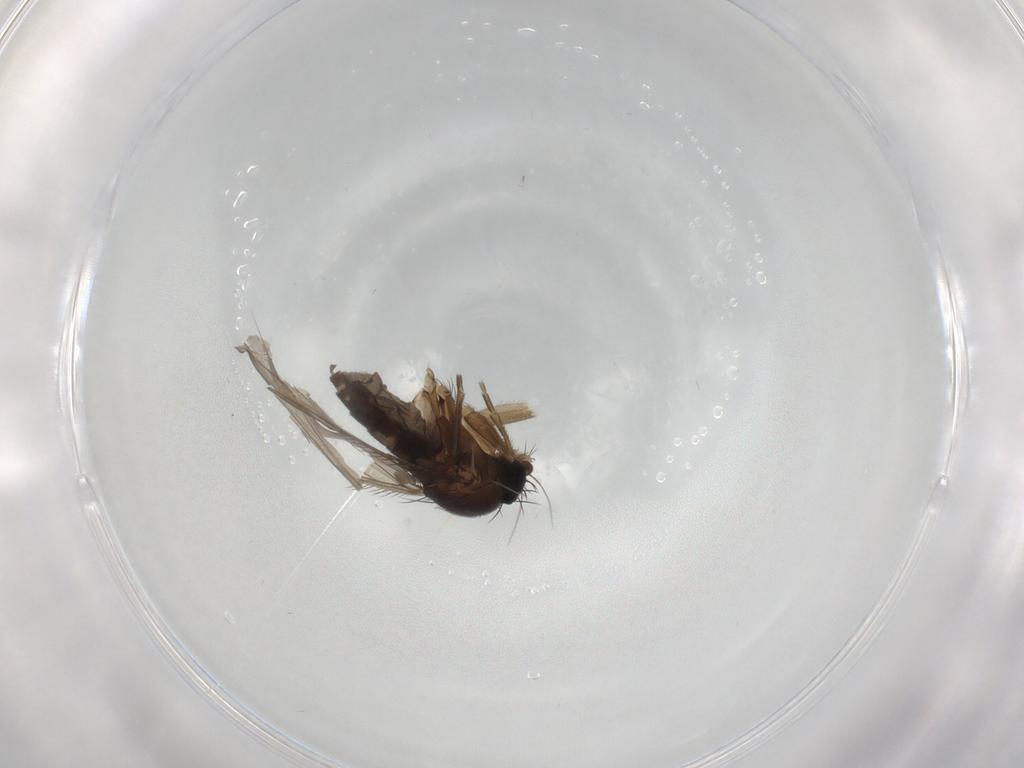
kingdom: Animalia
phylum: Arthropoda
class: Insecta
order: Diptera
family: Phoridae
